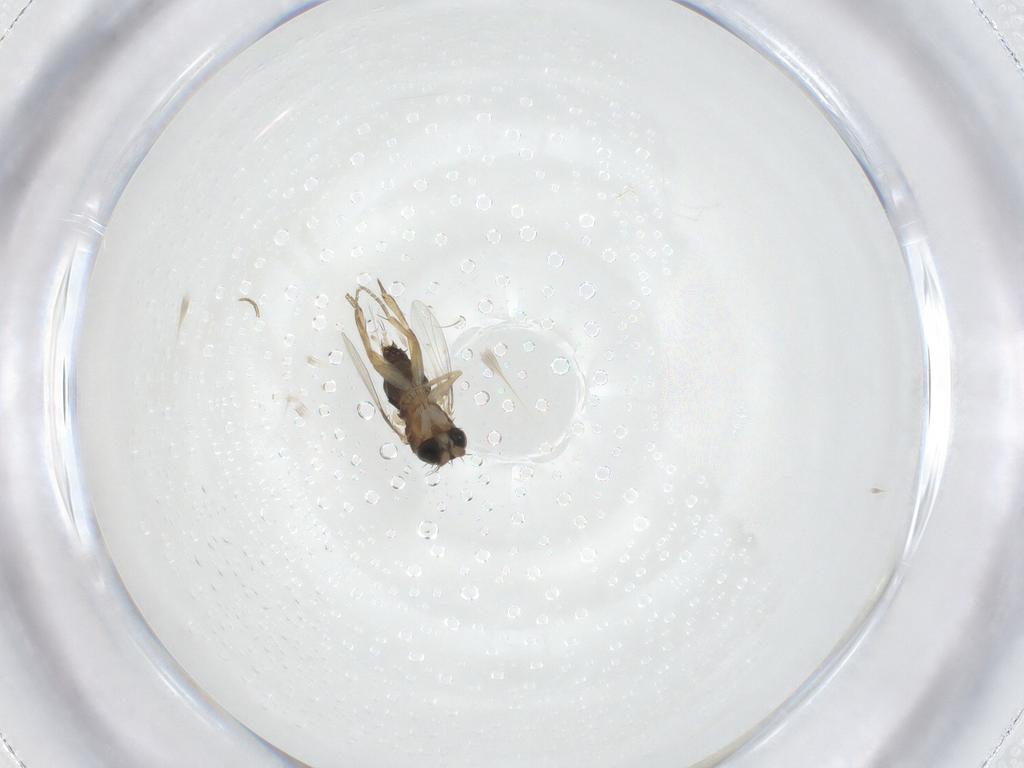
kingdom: Animalia
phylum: Arthropoda
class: Insecta
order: Diptera
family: Phoridae
